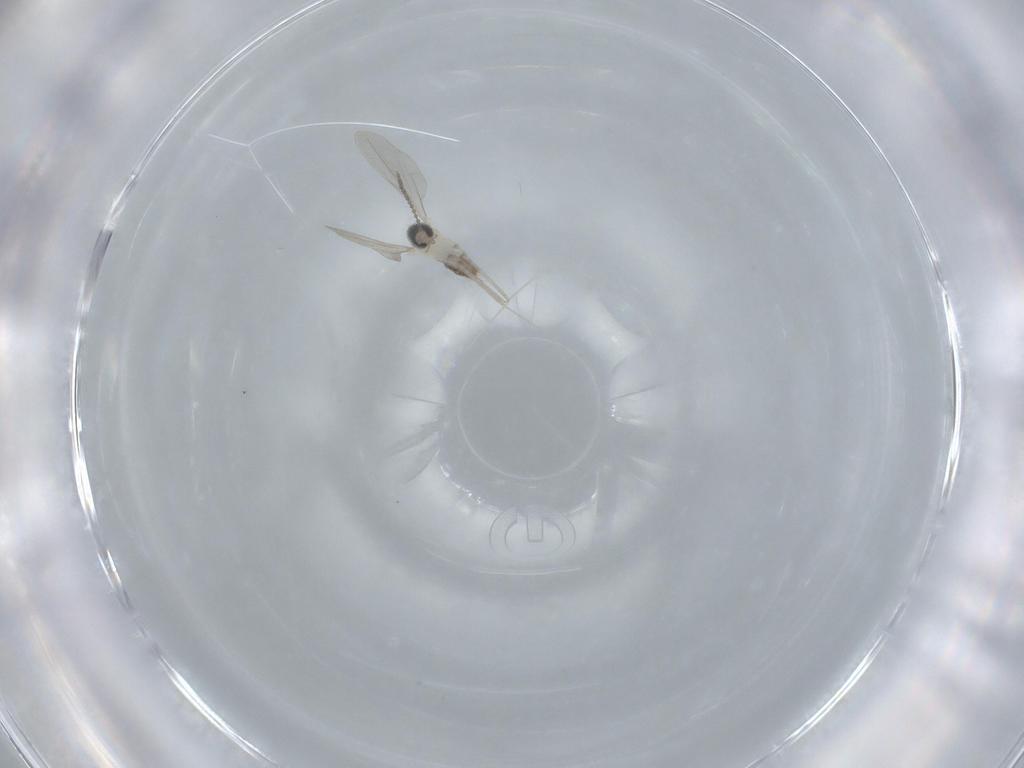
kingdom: Animalia
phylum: Arthropoda
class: Insecta
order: Diptera
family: Cecidomyiidae
